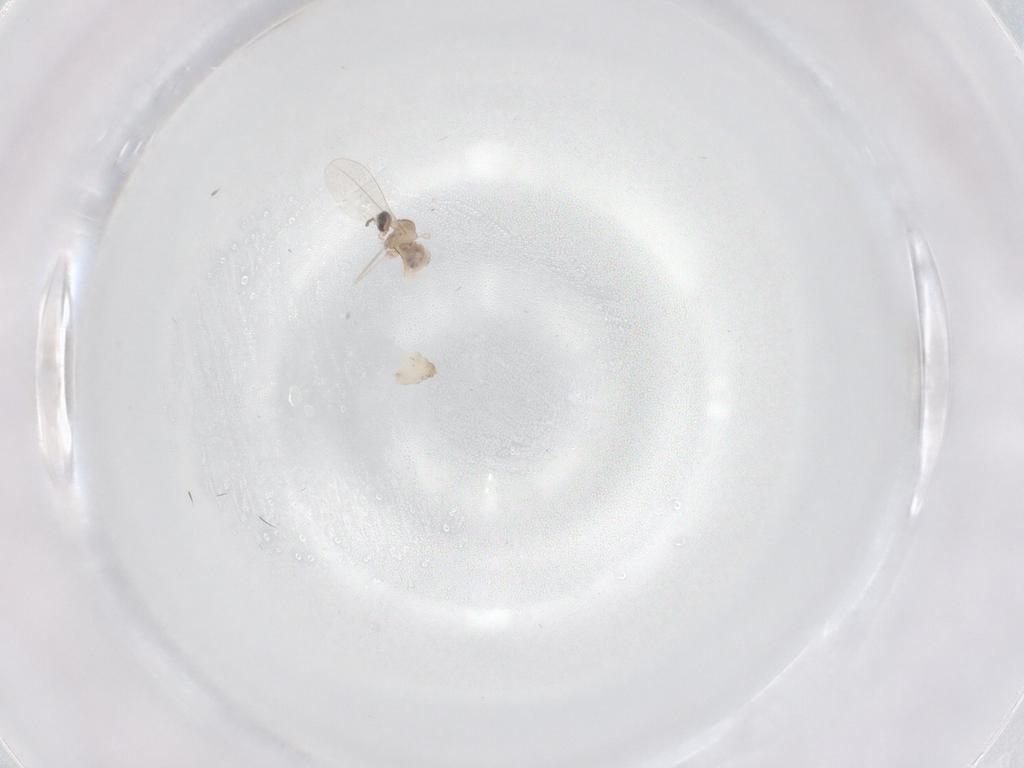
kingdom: Animalia
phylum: Arthropoda
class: Insecta
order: Diptera
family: Cecidomyiidae
